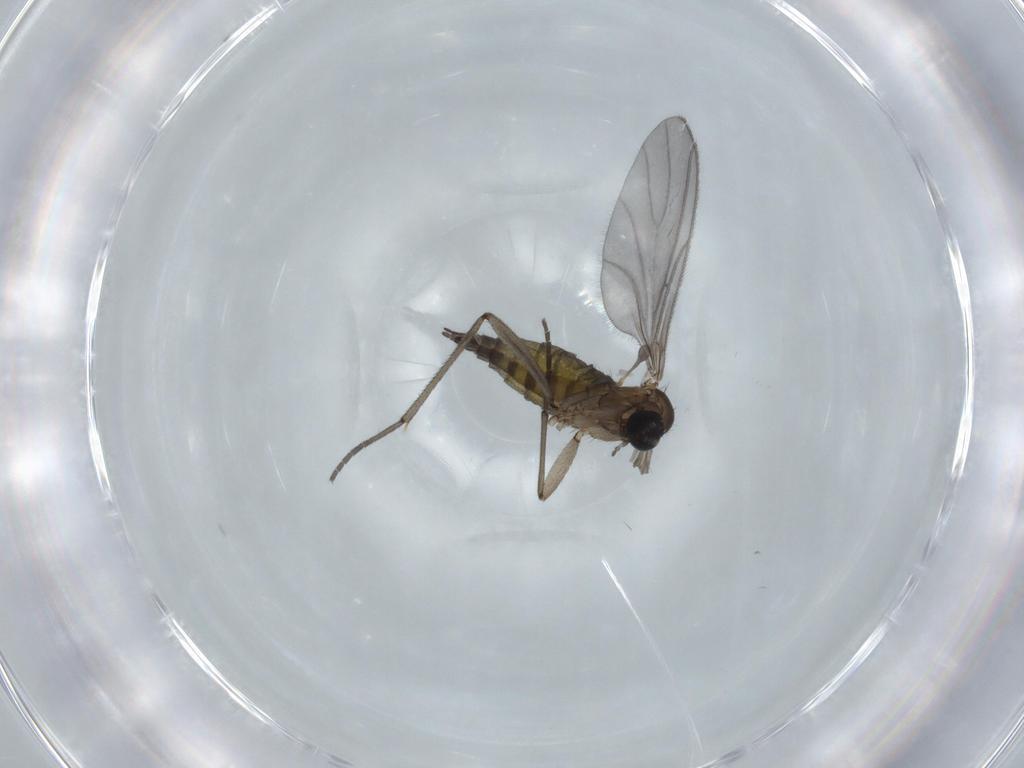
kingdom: Animalia
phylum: Arthropoda
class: Insecta
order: Diptera
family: Sciaridae
